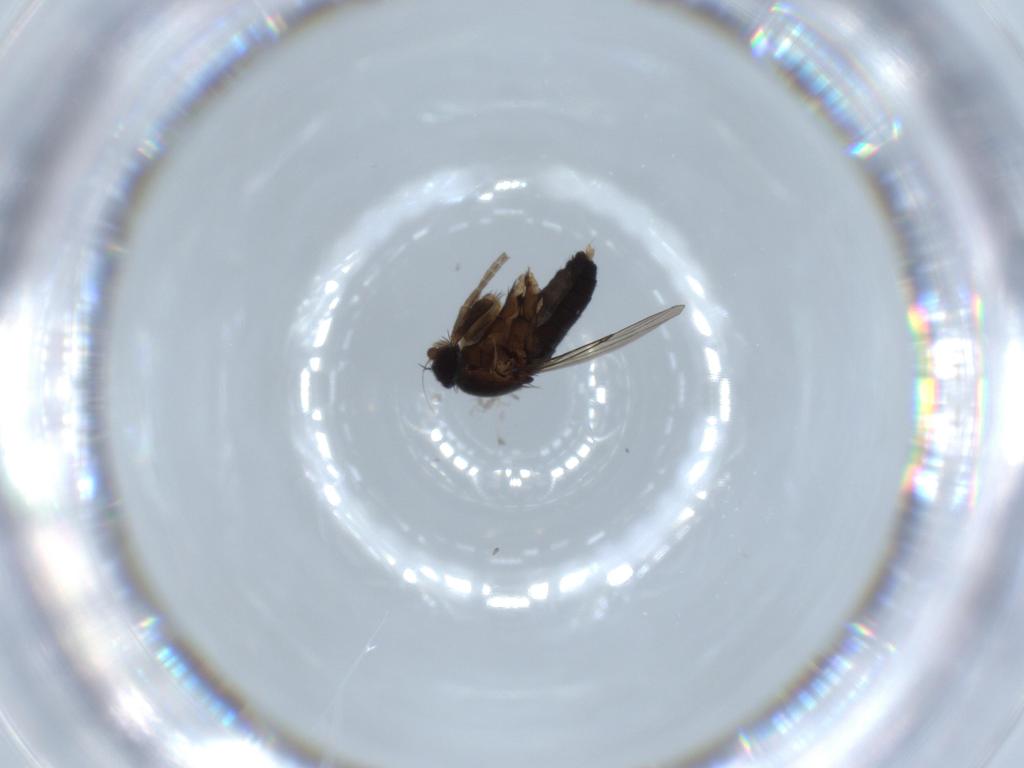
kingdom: Animalia
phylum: Arthropoda
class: Insecta
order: Diptera
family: Phoridae
